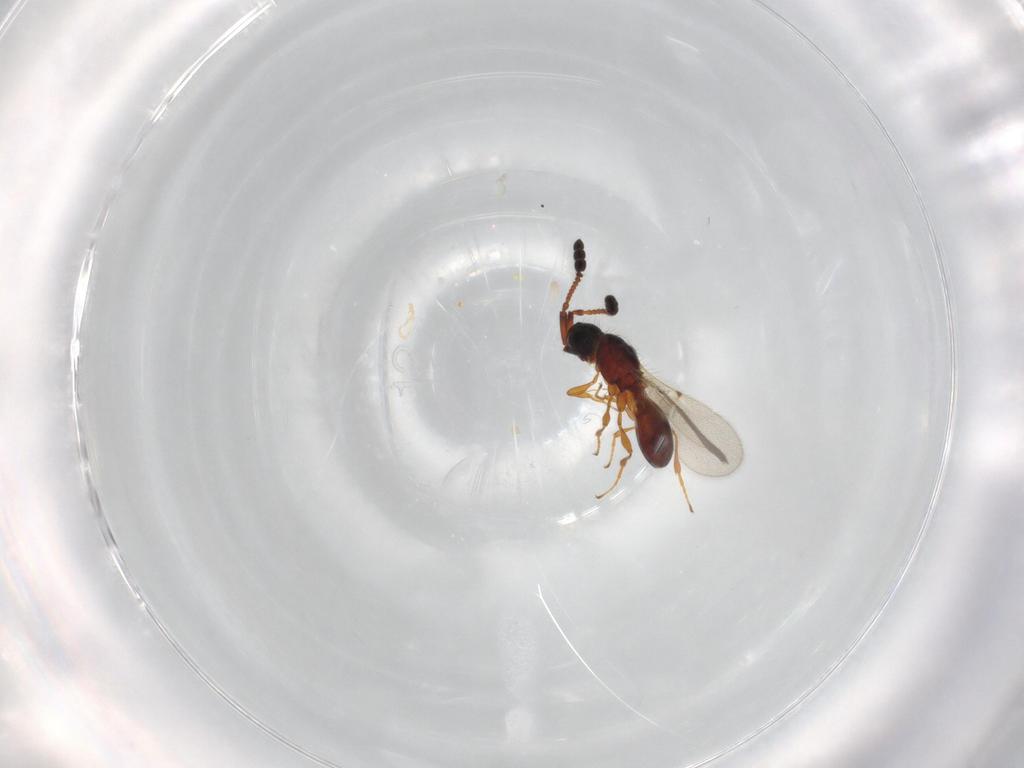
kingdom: Animalia
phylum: Arthropoda
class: Insecta
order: Hymenoptera
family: Diapriidae
